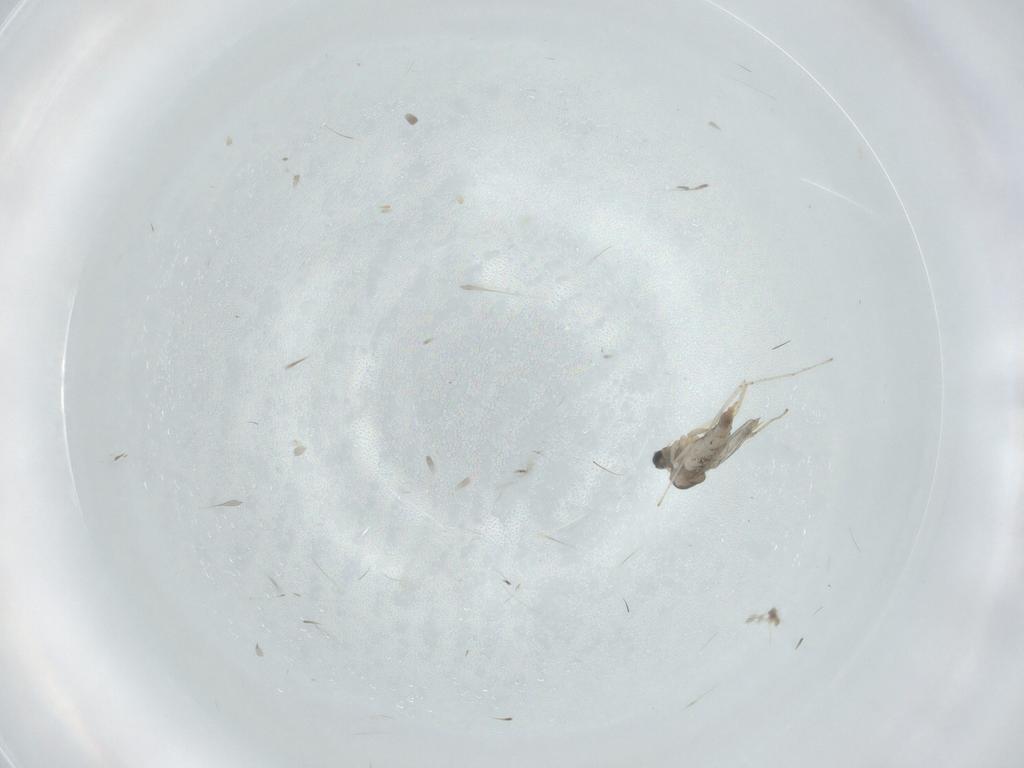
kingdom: Animalia
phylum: Arthropoda
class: Insecta
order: Diptera
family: Cecidomyiidae
